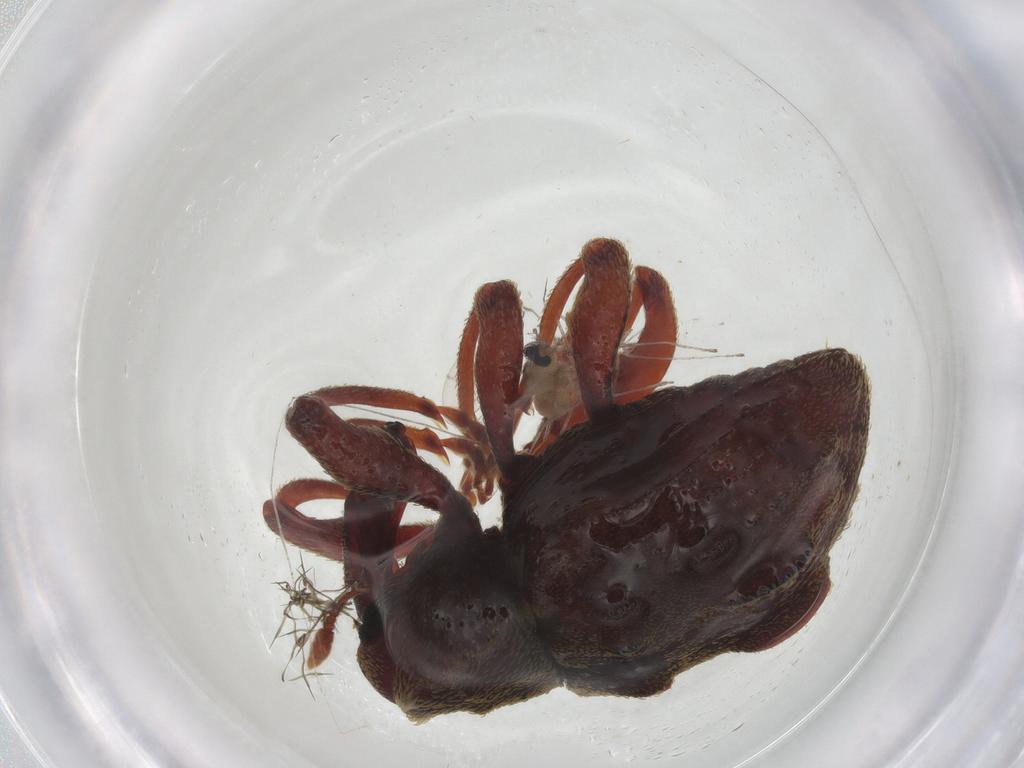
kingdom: Animalia
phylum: Arthropoda
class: Insecta
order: Diptera
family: Cecidomyiidae
